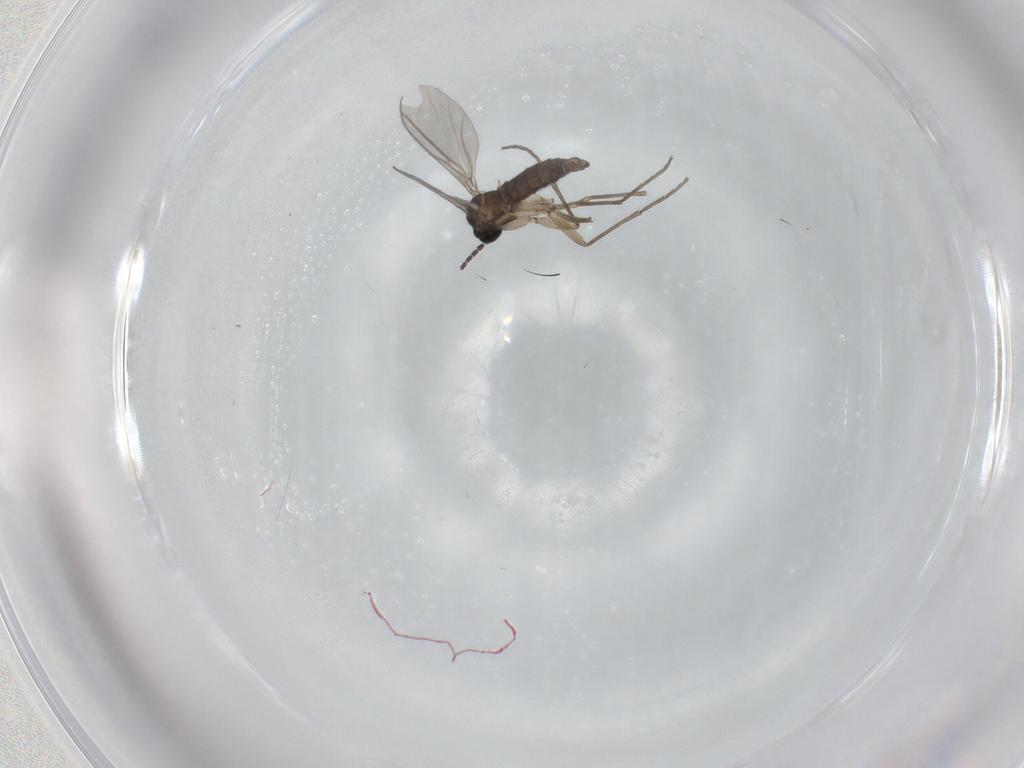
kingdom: Animalia
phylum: Arthropoda
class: Insecta
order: Diptera
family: Sciaridae
